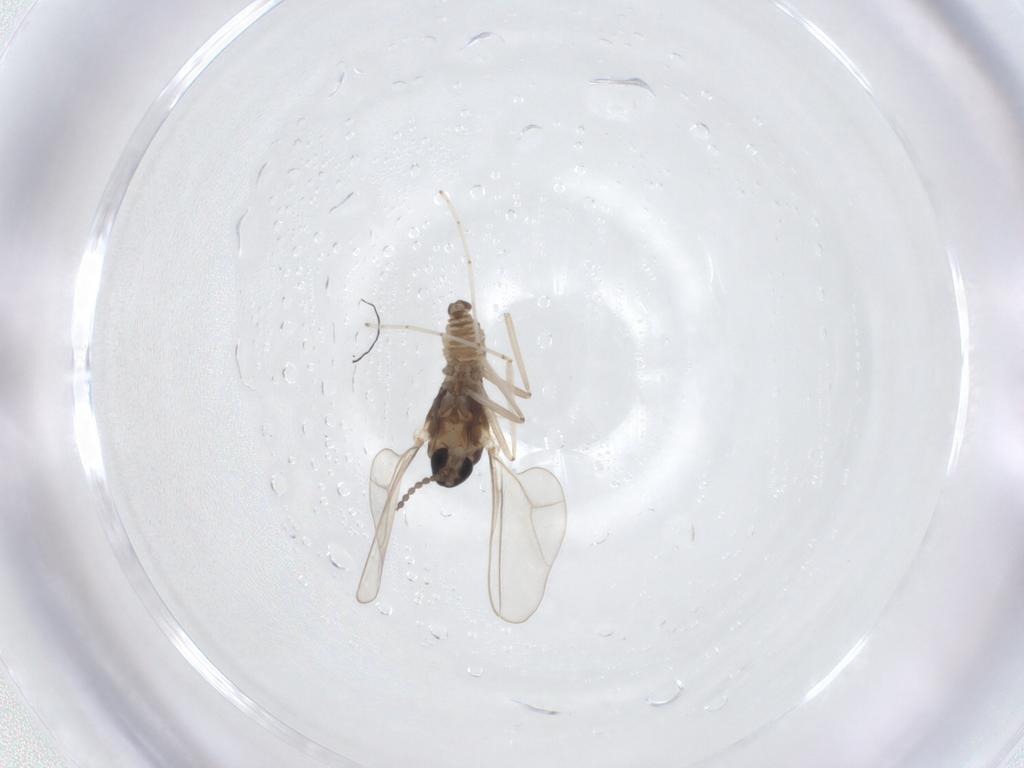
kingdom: Animalia
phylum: Arthropoda
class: Insecta
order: Diptera
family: Cecidomyiidae
